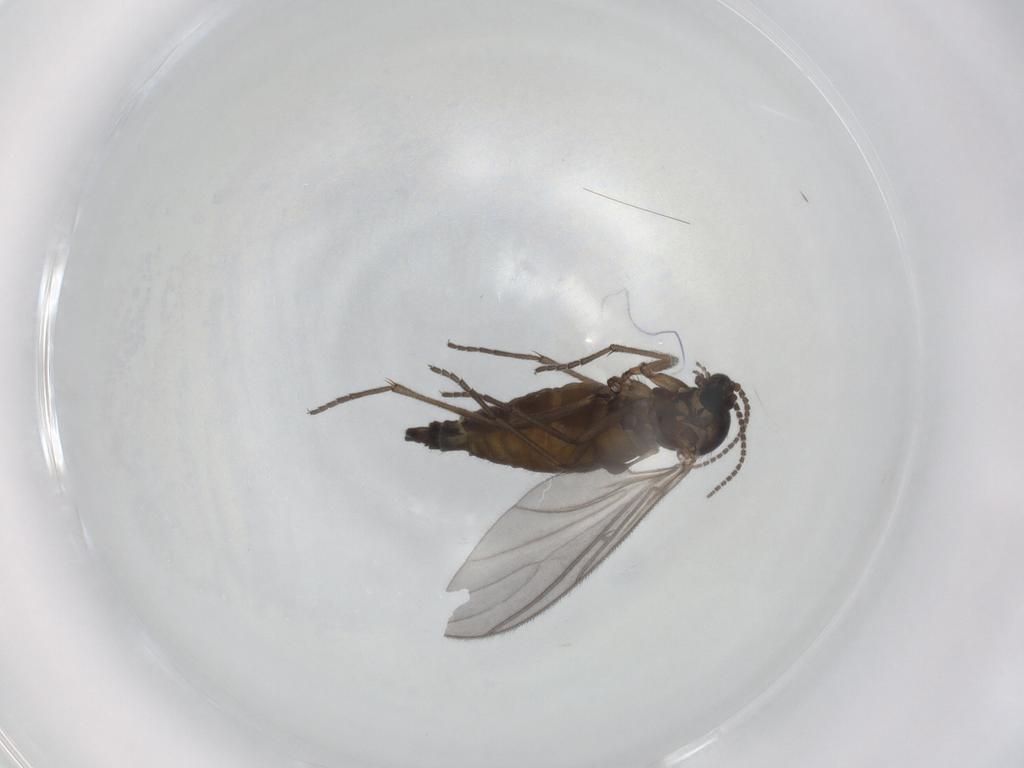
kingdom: Animalia
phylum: Arthropoda
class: Insecta
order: Diptera
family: Sciaridae
